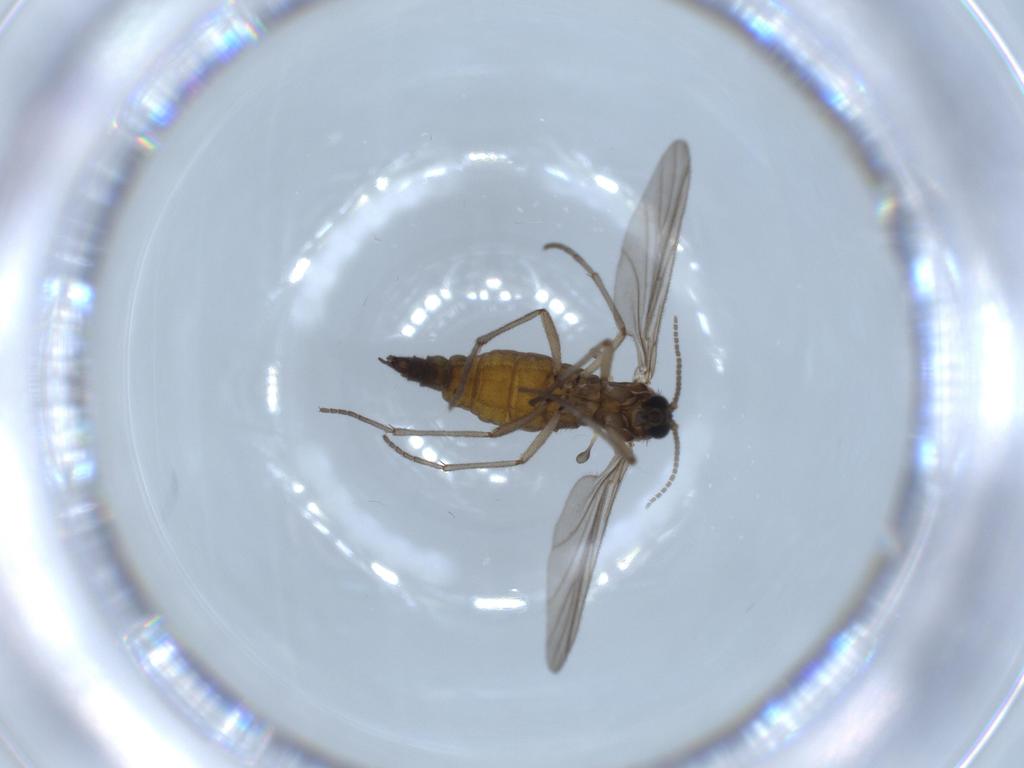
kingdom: Animalia
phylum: Arthropoda
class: Insecta
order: Diptera
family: Sciaridae
